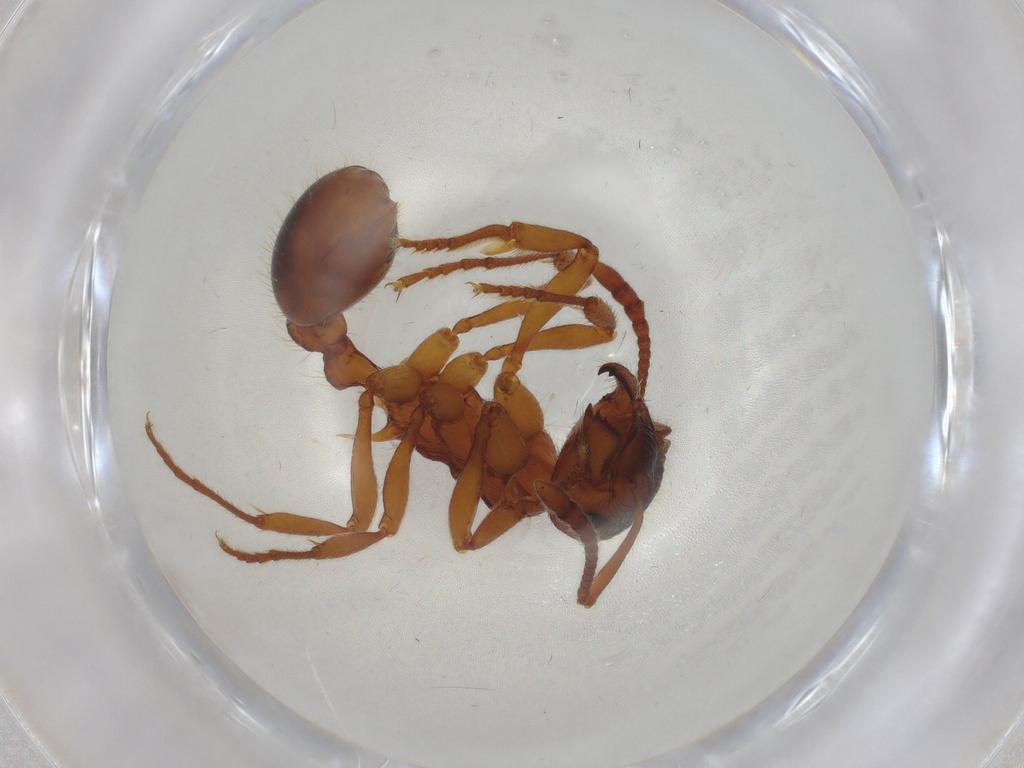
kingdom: Animalia
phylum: Arthropoda
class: Insecta
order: Hymenoptera
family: Formicidae
